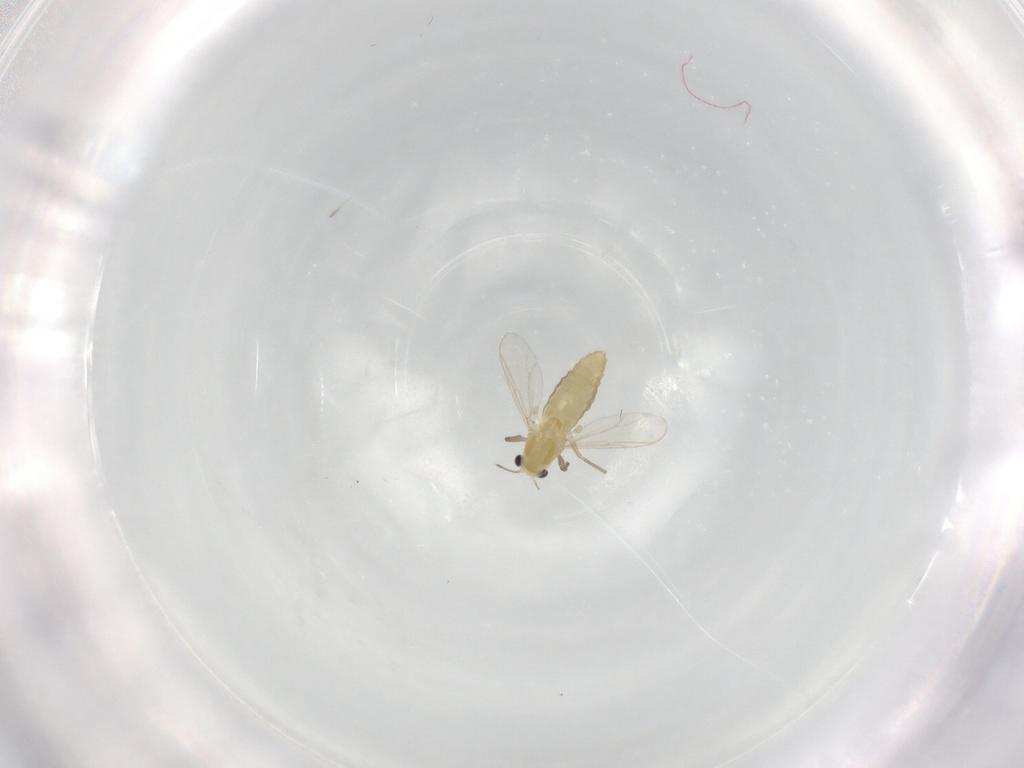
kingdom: Animalia
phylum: Arthropoda
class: Insecta
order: Diptera
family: Chironomidae
